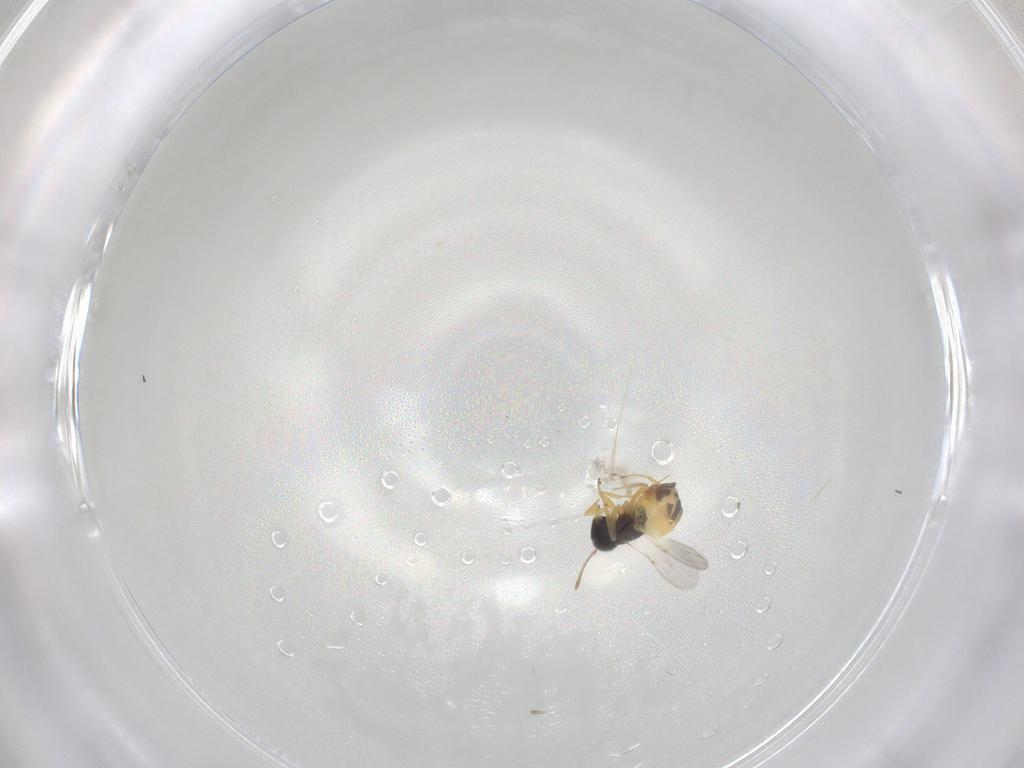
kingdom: Animalia
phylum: Arthropoda
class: Insecta
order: Hymenoptera
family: Encyrtidae
